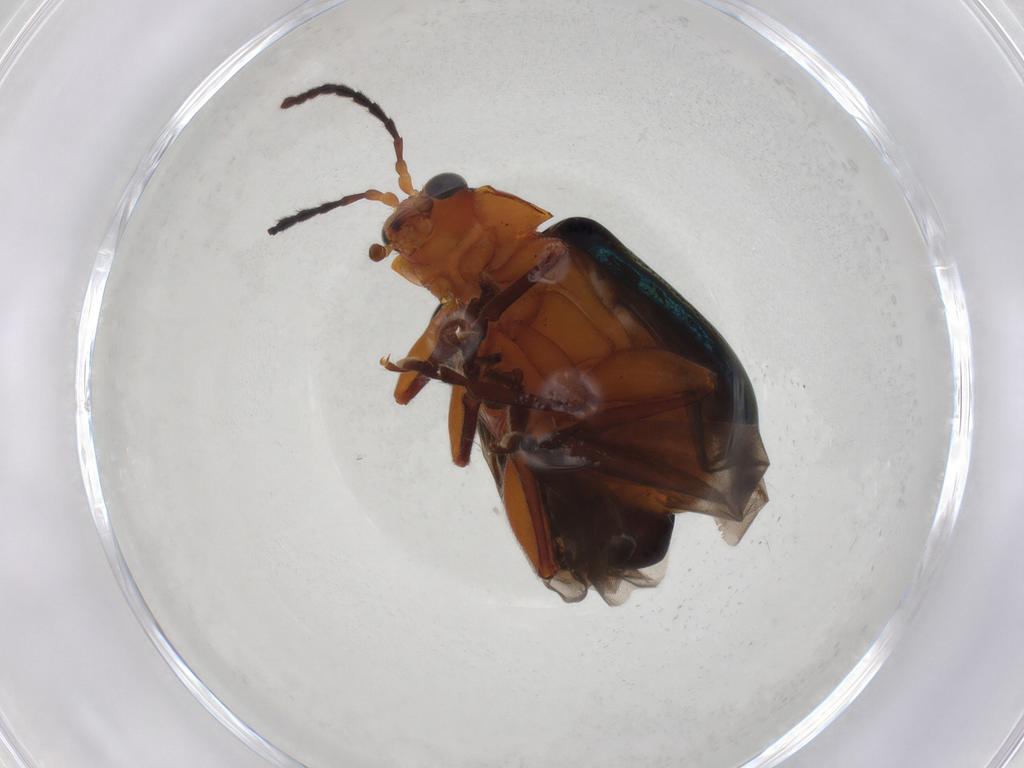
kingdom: Animalia
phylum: Arthropoda
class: Insecta
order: Coleoptera
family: Chrysomelidae
